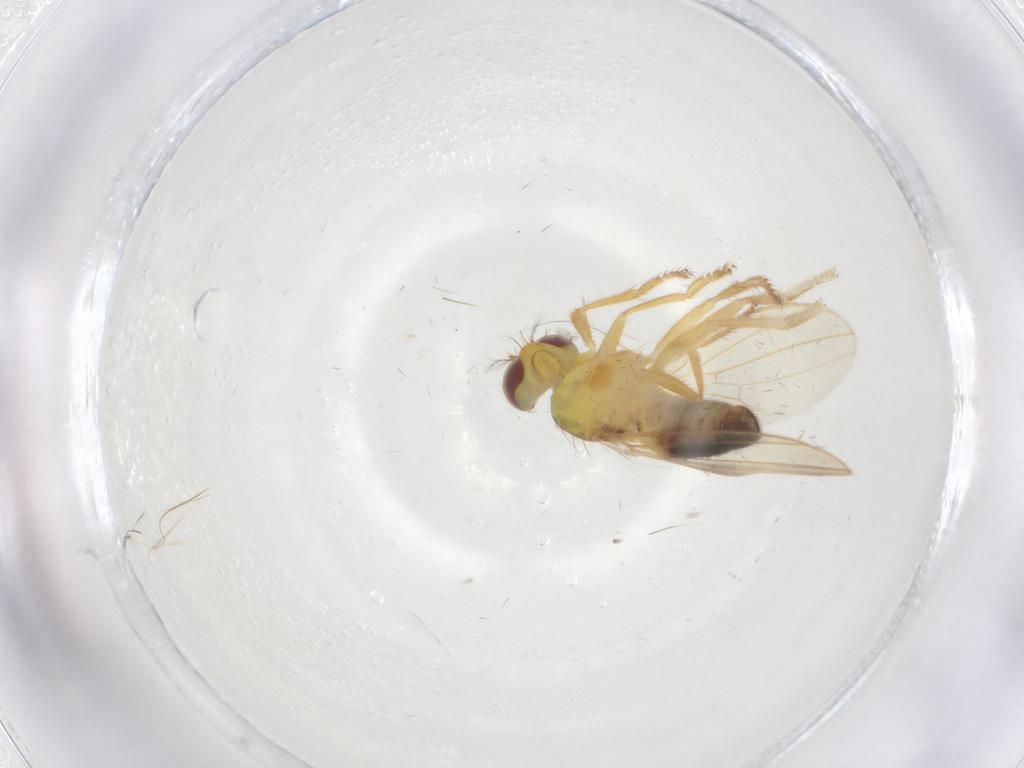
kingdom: Animalia
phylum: Arthropoda
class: Insecta
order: Diptera
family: Periscelididae
